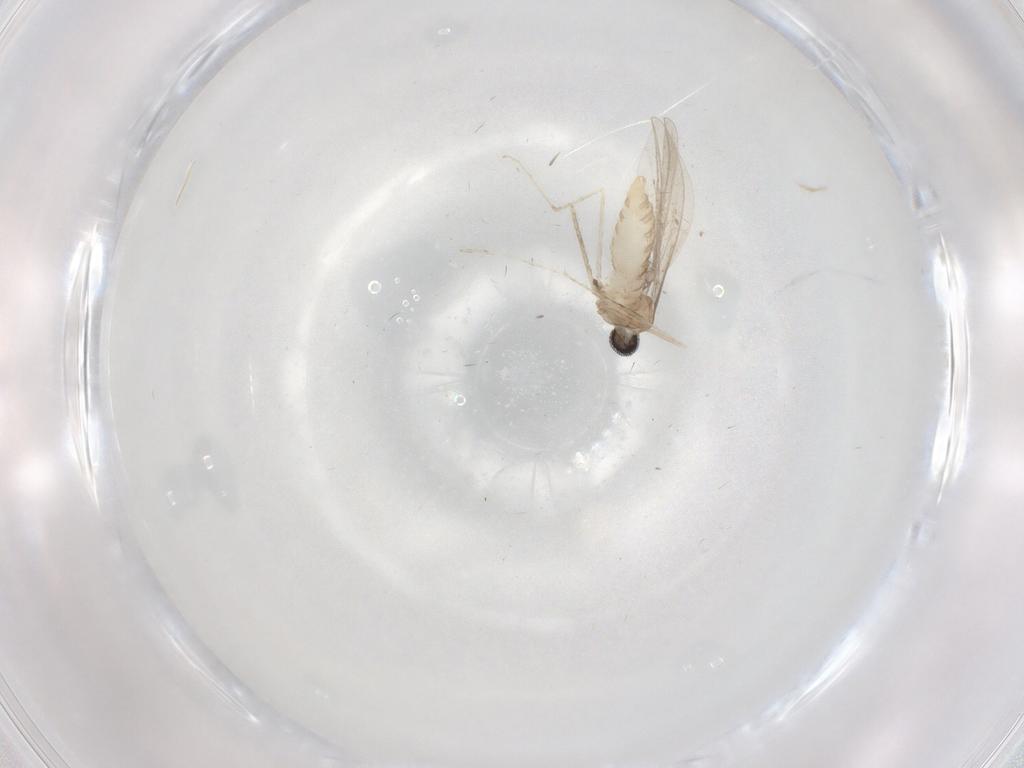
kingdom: Animalia
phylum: Arthropoda
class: Insecta
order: Diptera
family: Cecidomyiidae
